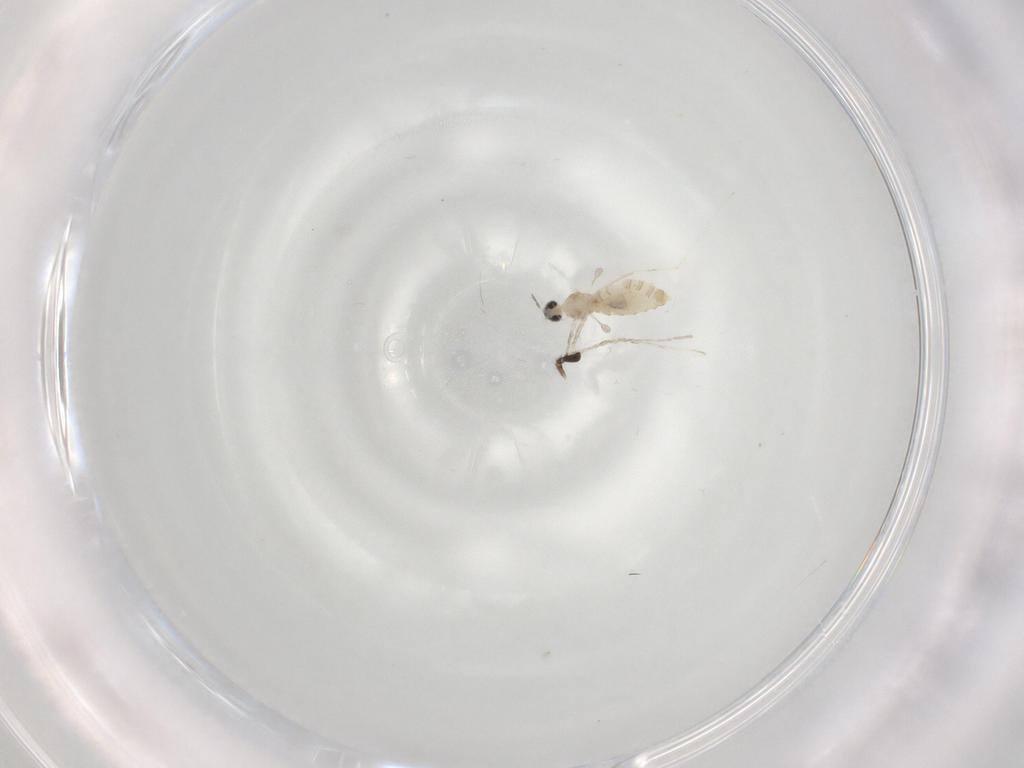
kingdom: Animalia
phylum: Arthropoda
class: Insecta
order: Diptera
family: Cecidomyiidae
